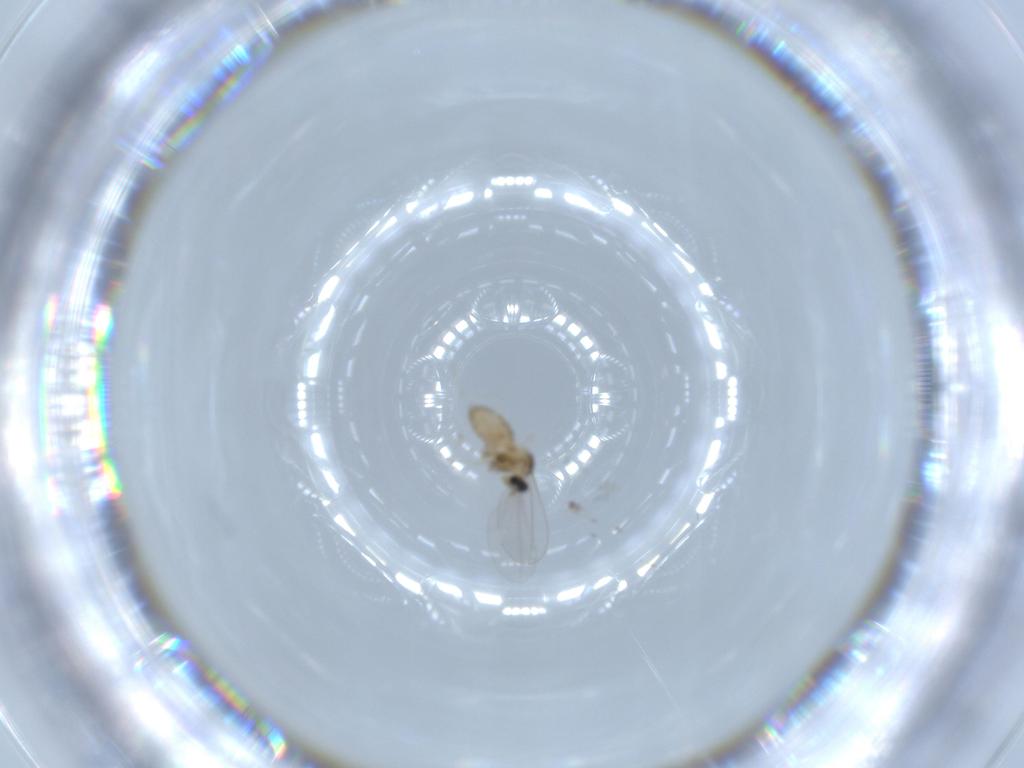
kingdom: Animalia
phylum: Arthropoda
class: Insecta
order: Diptera
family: Cecidomyiidae
